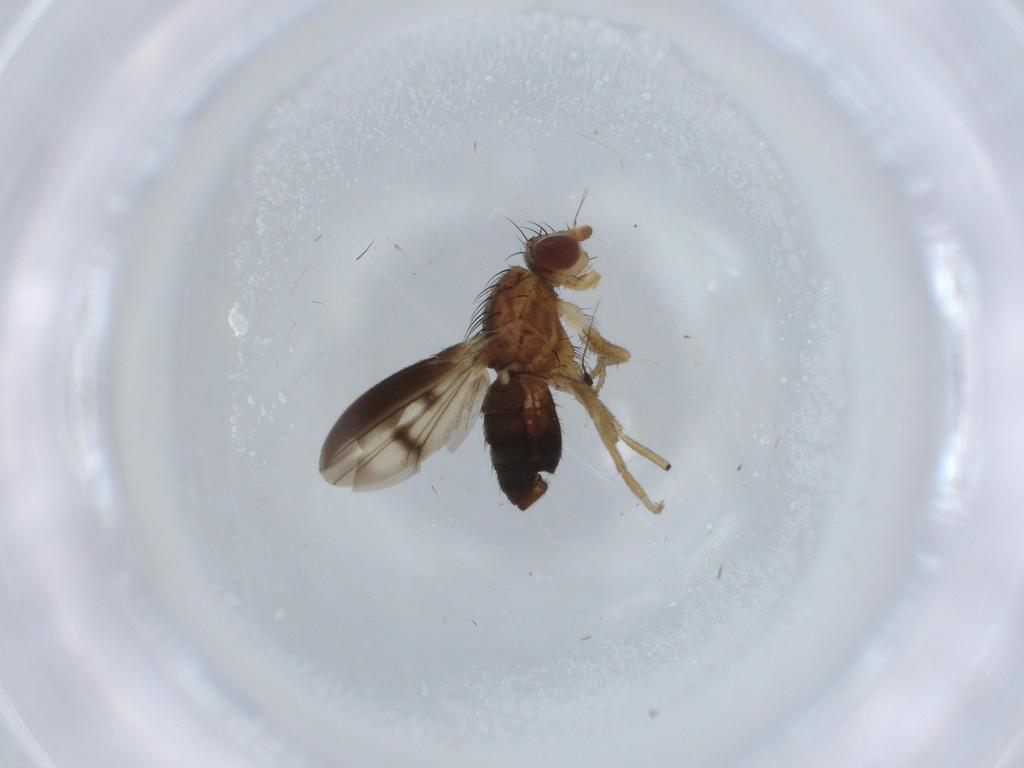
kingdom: Animalia
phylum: Arthropoda
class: Insecta
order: Diptera
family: Heleomyzidae
